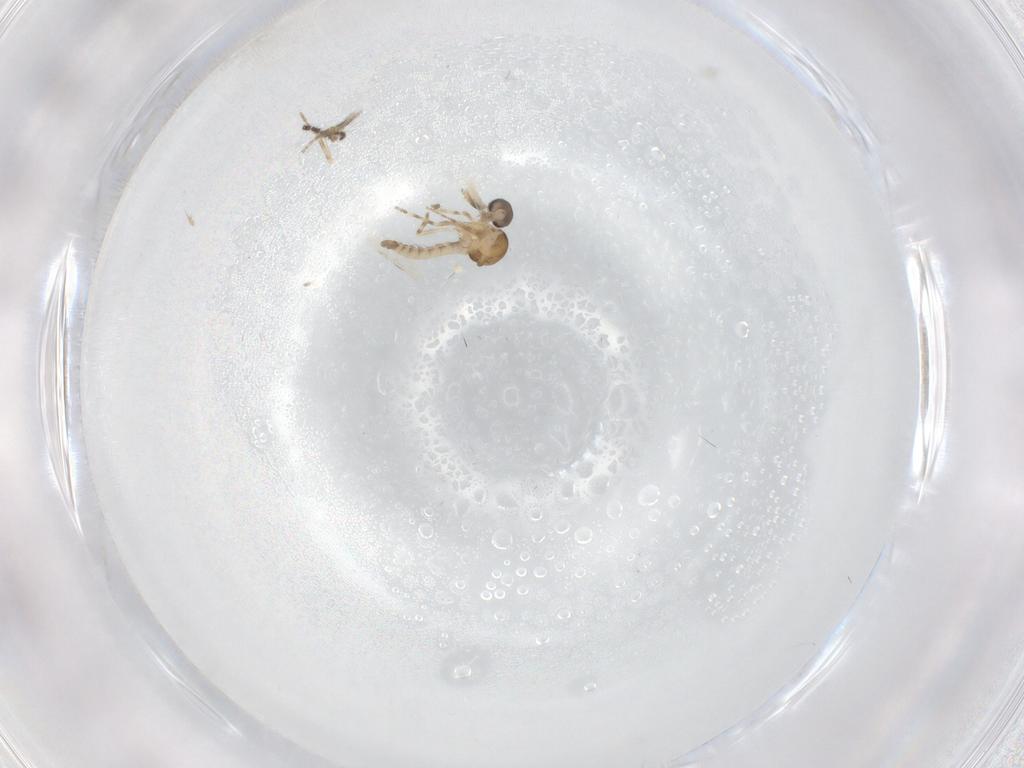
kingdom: Animalia
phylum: Arthropoda
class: Insecta
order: Diptera
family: Ceratopogonidae
